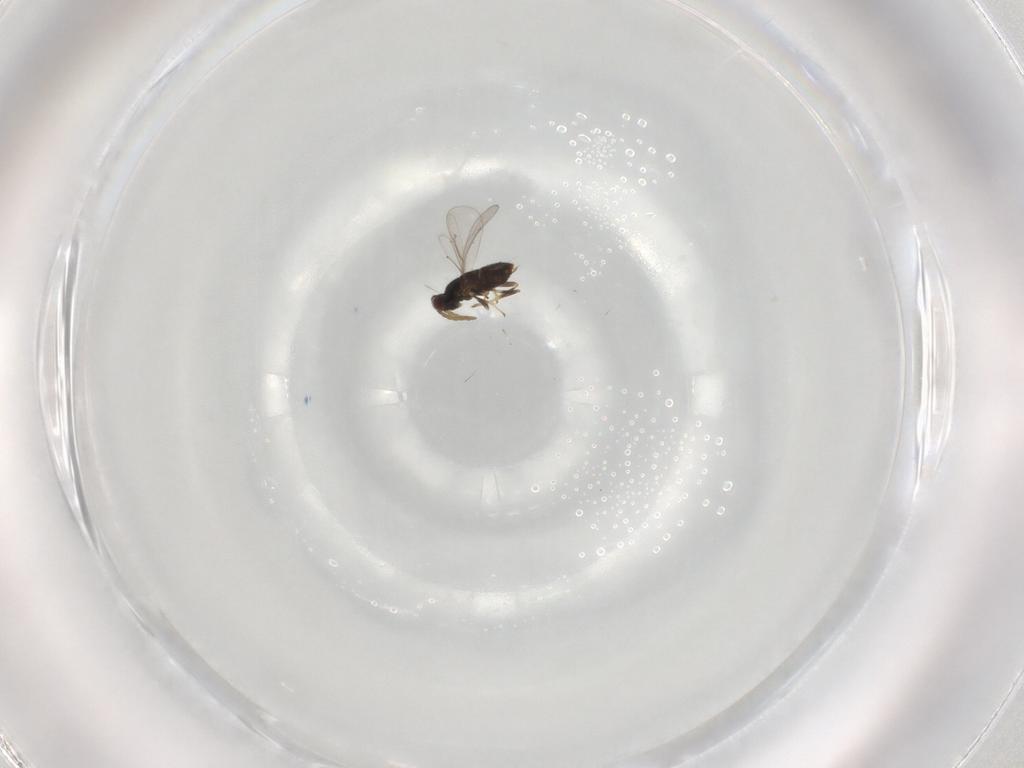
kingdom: Animalia
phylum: Arthropoda
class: Insecta
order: Hymenoptera
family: Aphelinidae
